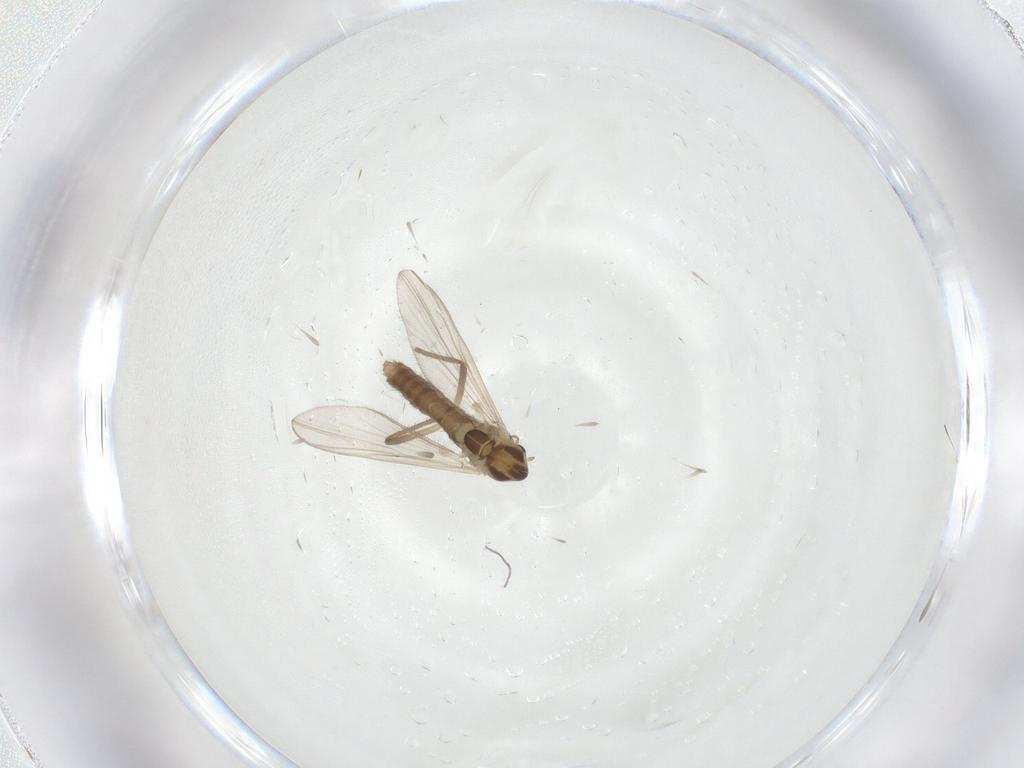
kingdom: Animalia
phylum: Arthropoda
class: Insecta
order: Diptera
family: Chironomidae
